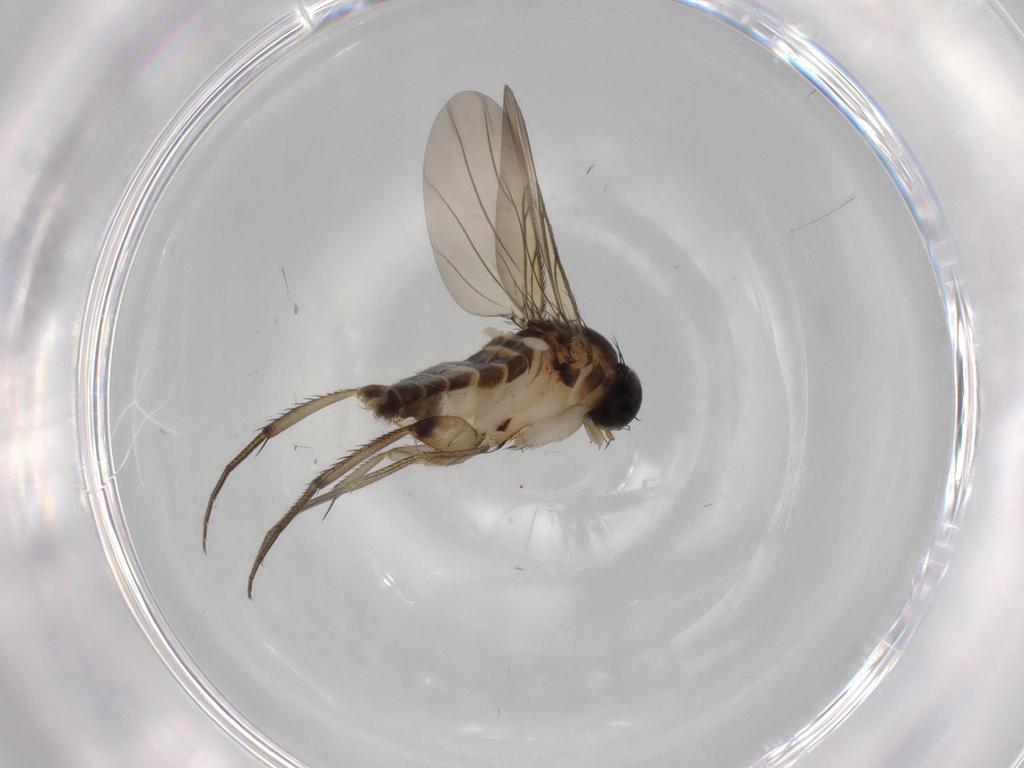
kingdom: Animalia
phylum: Arthropoda
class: Insecta
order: Diptera
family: Phoridae
